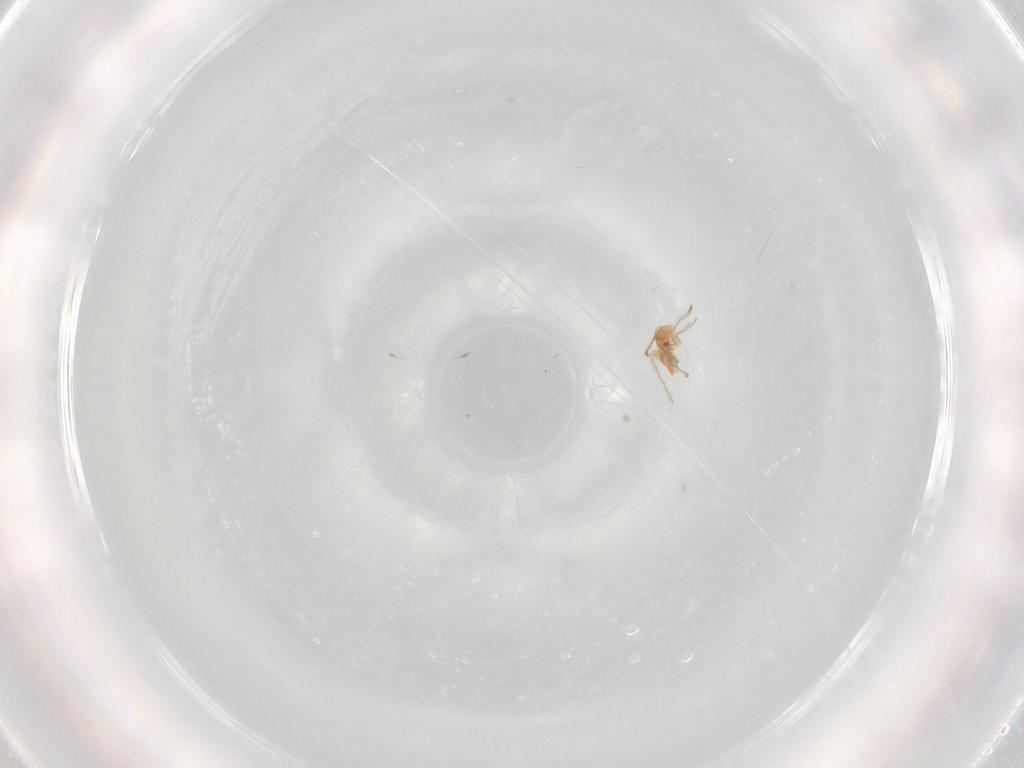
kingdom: Animalia
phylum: Arthropoda
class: Insecta
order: Hemiptera
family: Miridae
